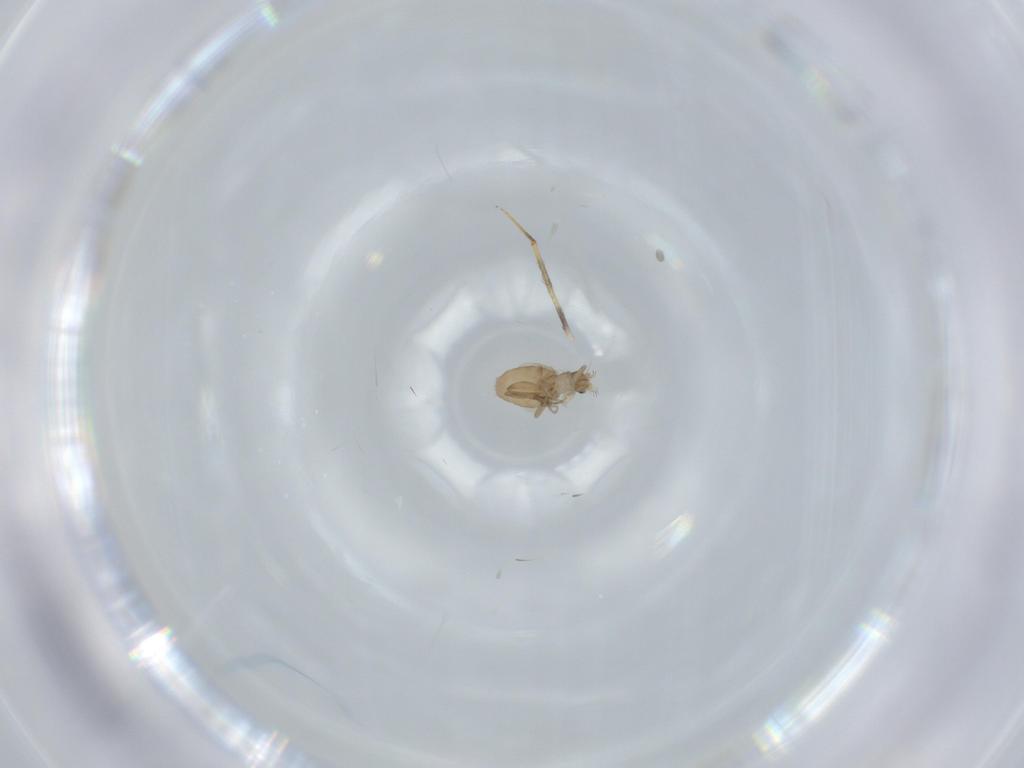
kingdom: Animalia
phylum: Arthropoda
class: Insecta
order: Diptera
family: Phoridae
